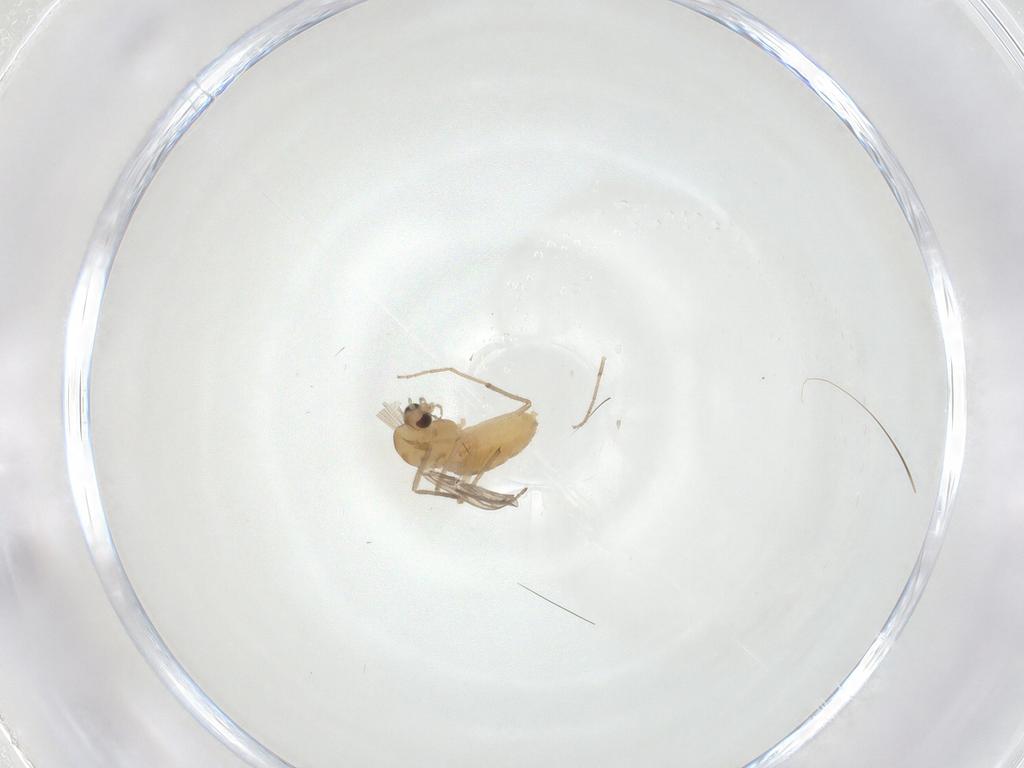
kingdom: Animalia
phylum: Arthropoda
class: Insecta
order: Diptera
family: Chironomidae
